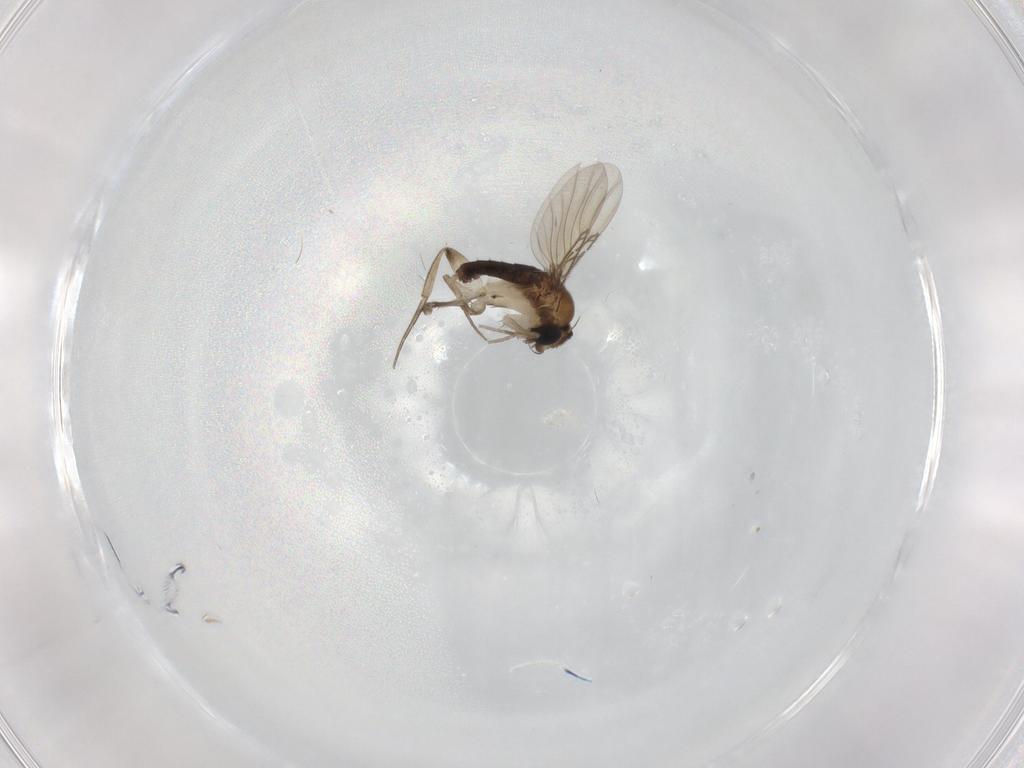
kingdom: Animalia
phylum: Arthropoda
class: Insecta
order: Diptera
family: Phoridae
